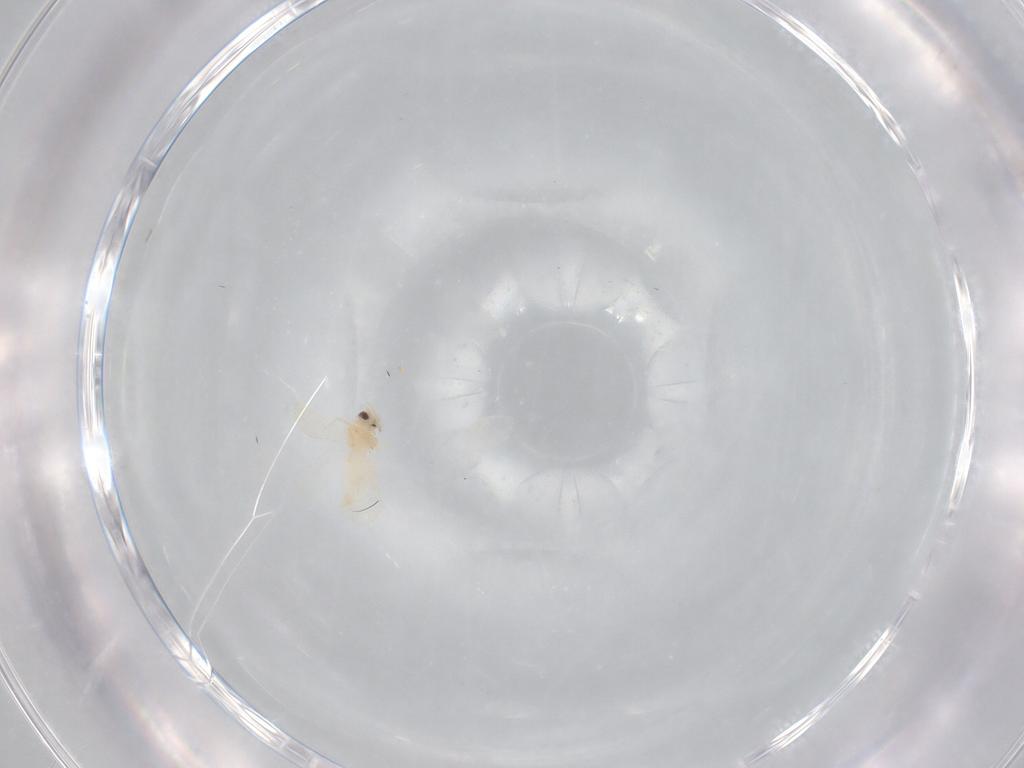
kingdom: Animalia
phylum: Arthropoda
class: Insecta
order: Hemiptera
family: Aleyrodidae
